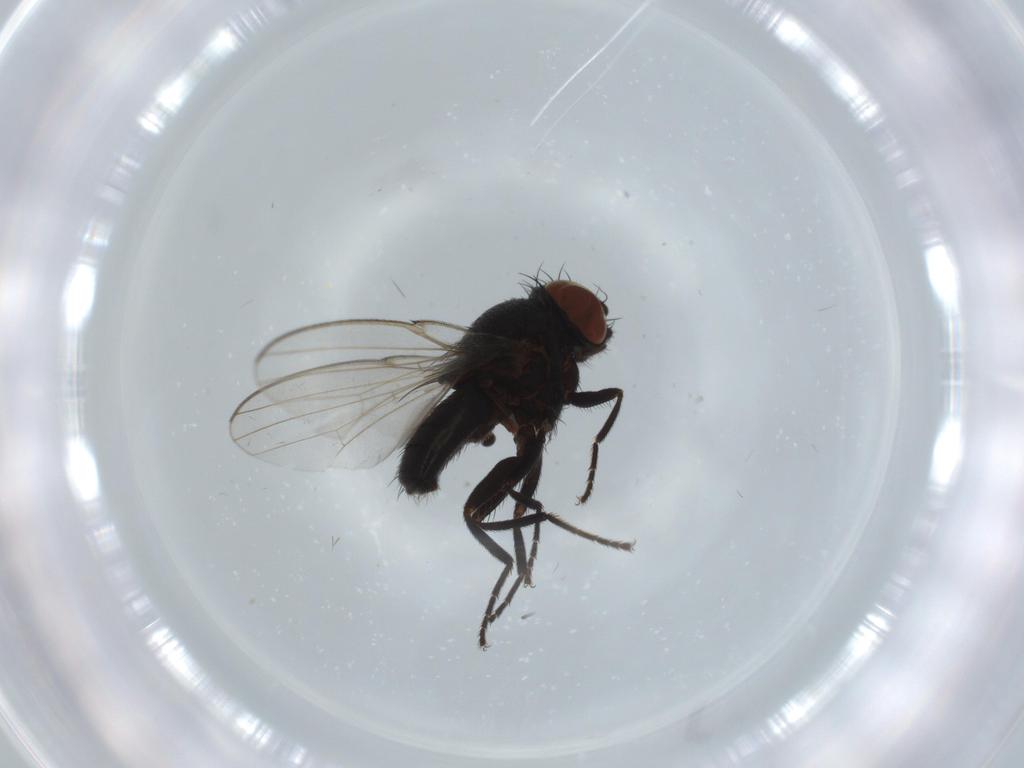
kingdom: Animalia
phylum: Arthropoda
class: Insecta
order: Diptera
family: Milichiidae
